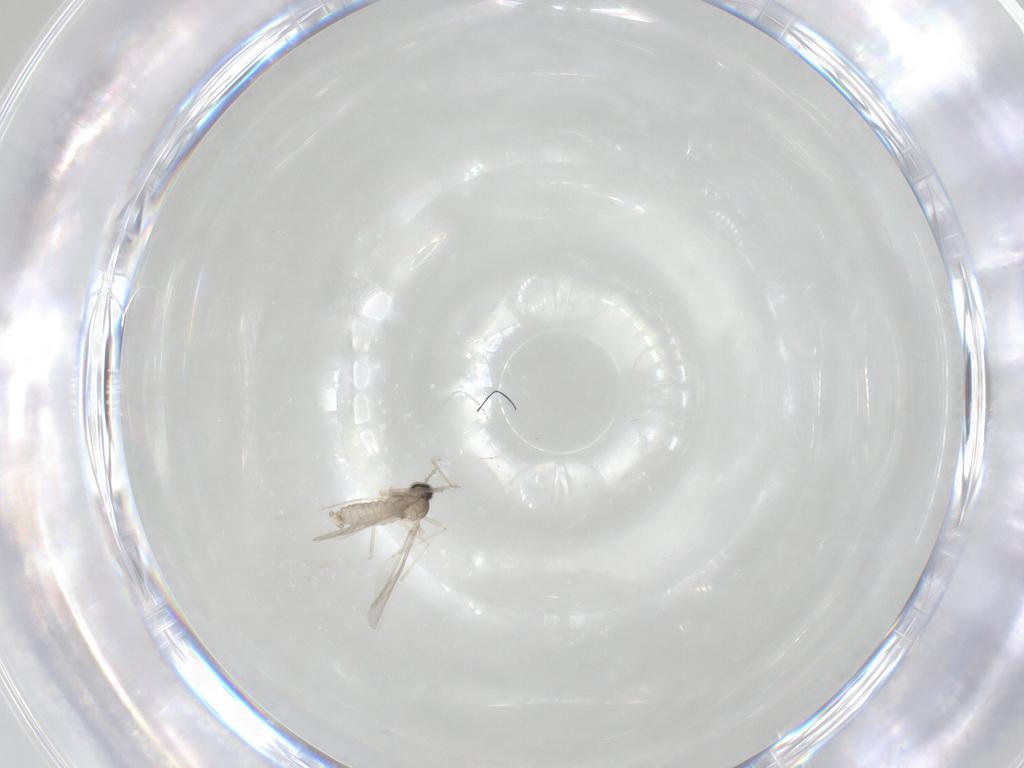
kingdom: Animalia
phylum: Arthropoda
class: Insecta
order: Diptera
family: Cecidomyiidae
